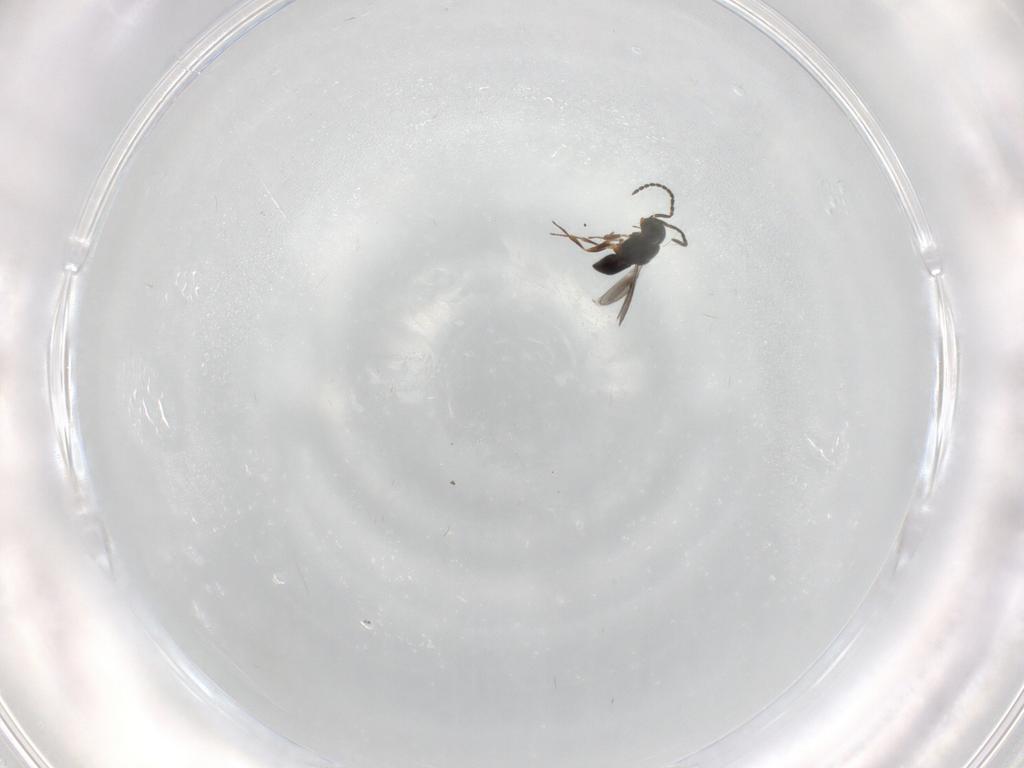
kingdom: Animalia
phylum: Arthropoda
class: Insecta
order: Hymenoptera
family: Scelionidae
